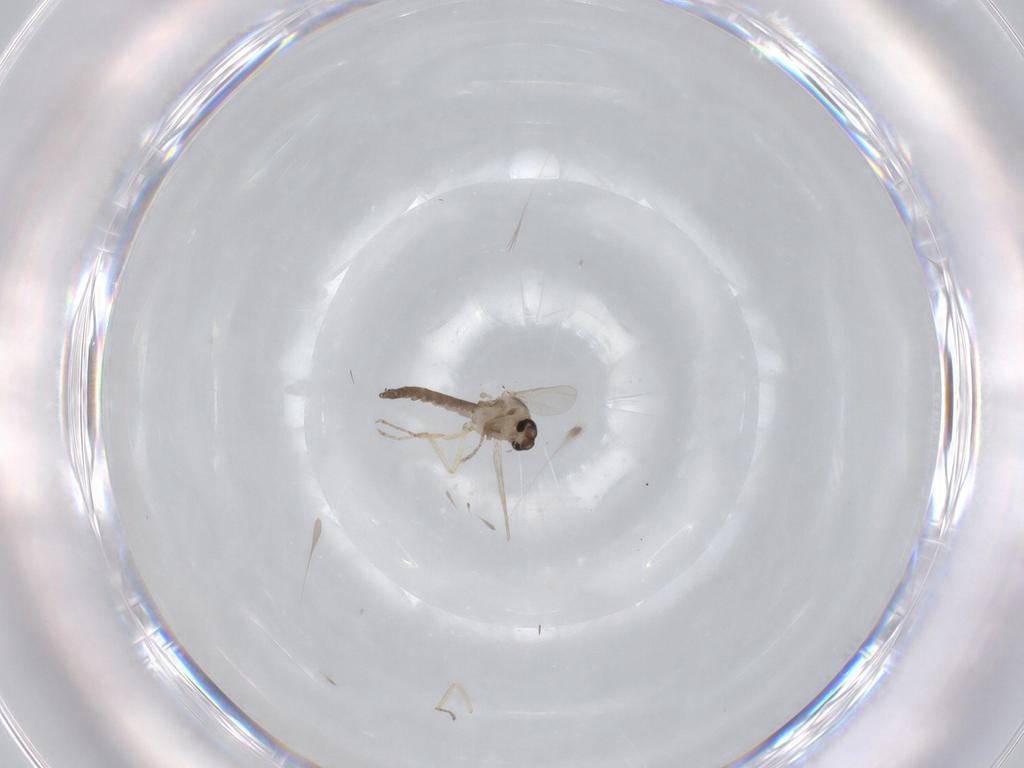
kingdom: Animalia
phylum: Arthropoda
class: Insecta
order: Diptera
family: Ceratopogonidae
